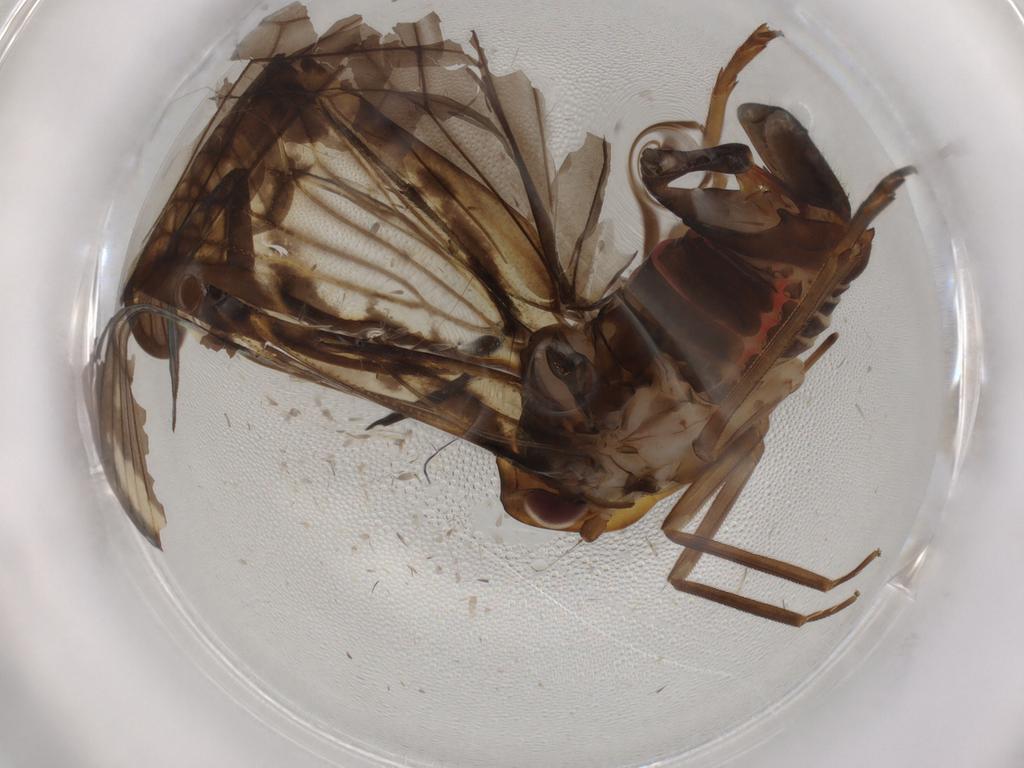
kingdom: Animalia
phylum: Arthropoda
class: Insecta
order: Hemiptera
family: Cixiidae
